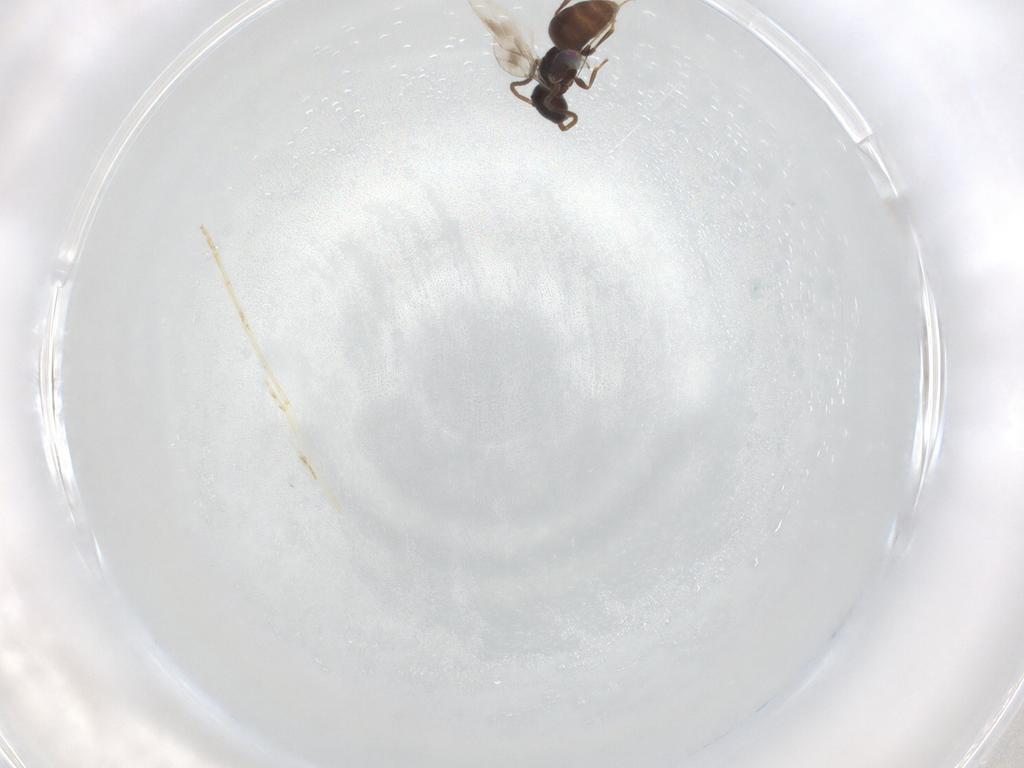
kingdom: Animalia
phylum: Arthropoda
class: Insecta
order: Hymenoptera
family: Bethylidae
